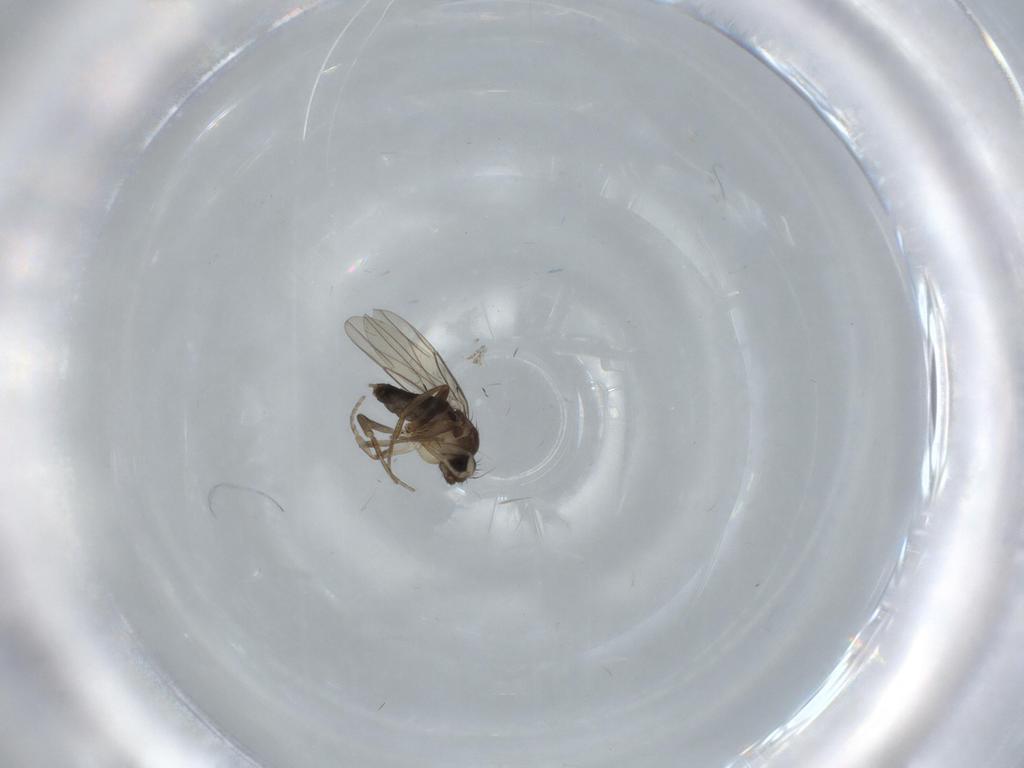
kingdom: Animalia
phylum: Arthropoda
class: Insecta
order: Diptera
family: Phoridae
